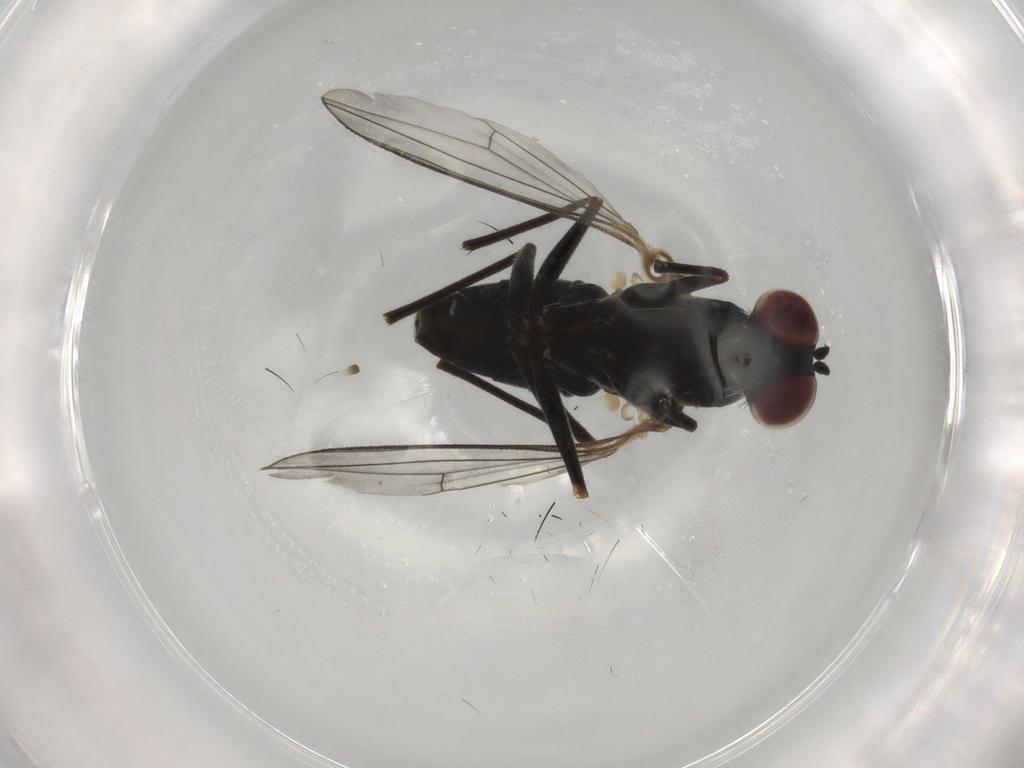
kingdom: Animalia
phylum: Arthropoda
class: Insecta
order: Diptera
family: Dolichopodidae
